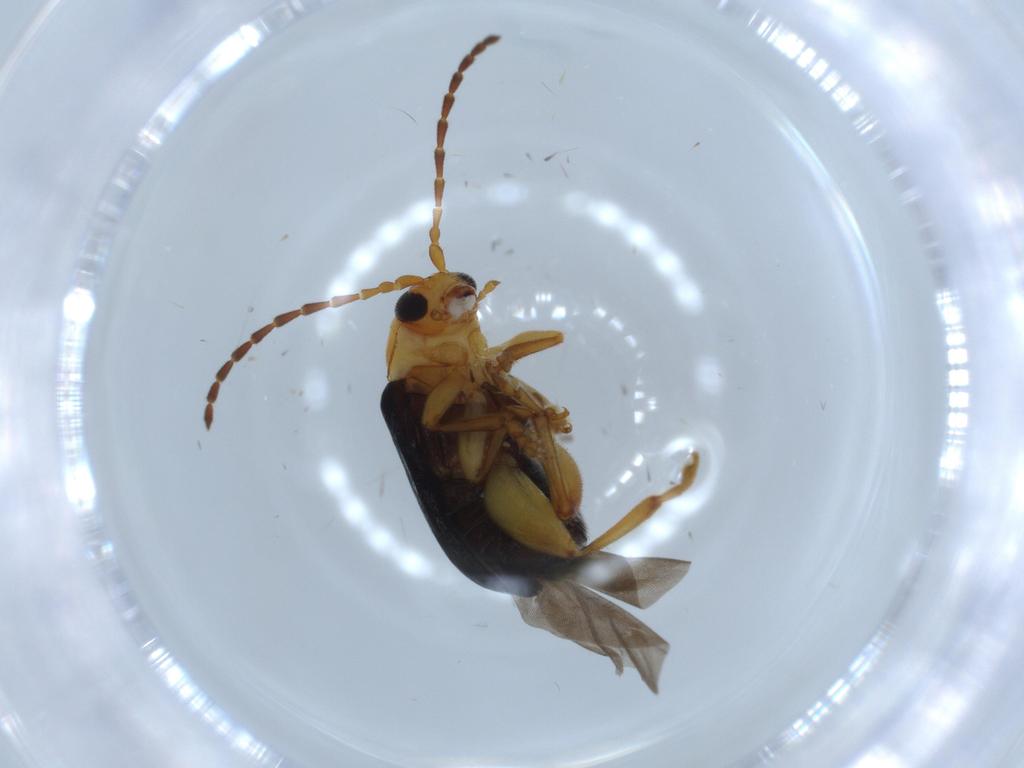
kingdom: Animalia
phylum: Arthropoda
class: Insecta
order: Coleoptera
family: Chrysomelidae
